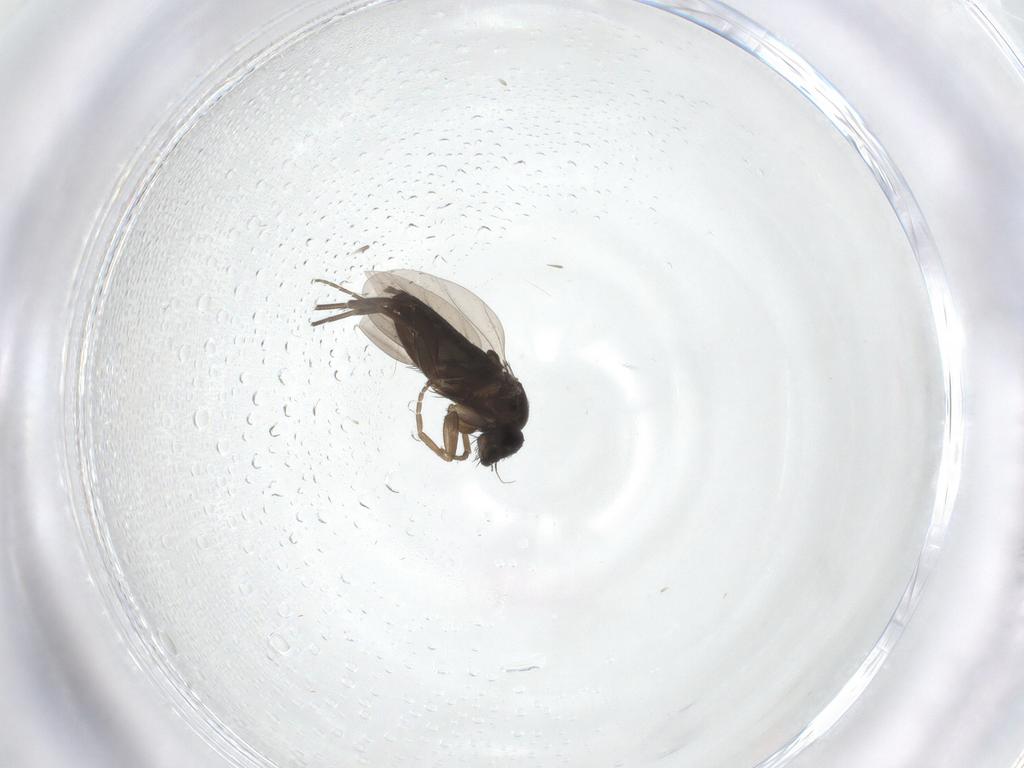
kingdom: Animalia
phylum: Arthropoda
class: Insecta
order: Diptera
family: Phoridae
